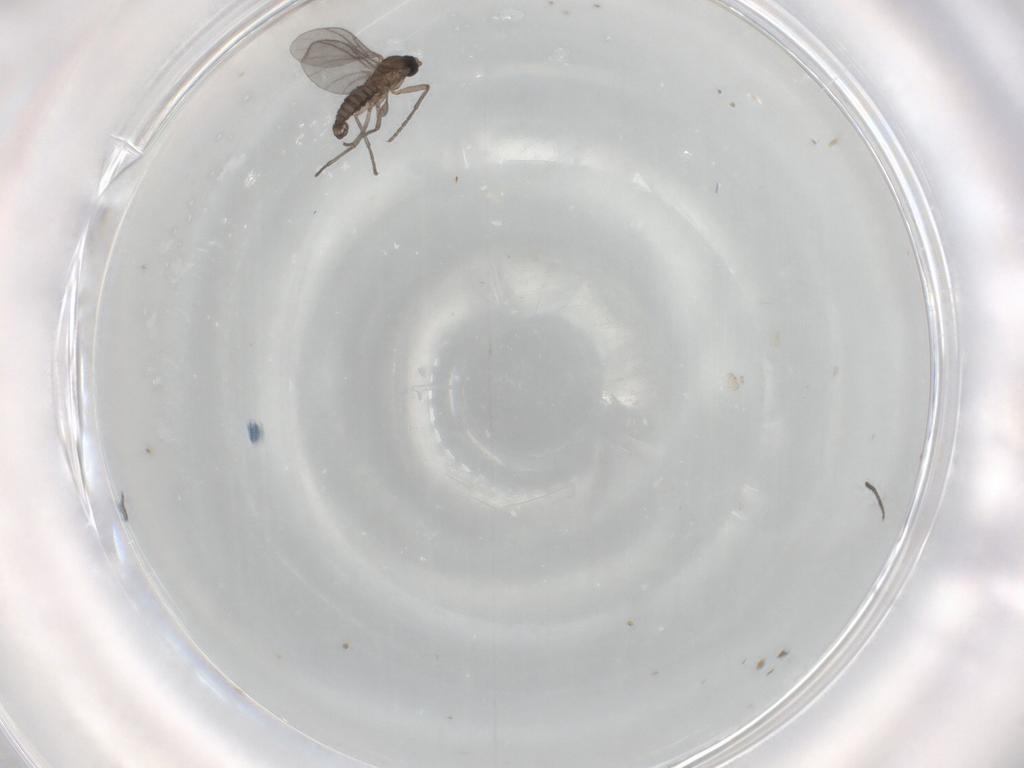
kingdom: Animalia
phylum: Arthropoda
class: Insecta
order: Diptera
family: Sciaridae
